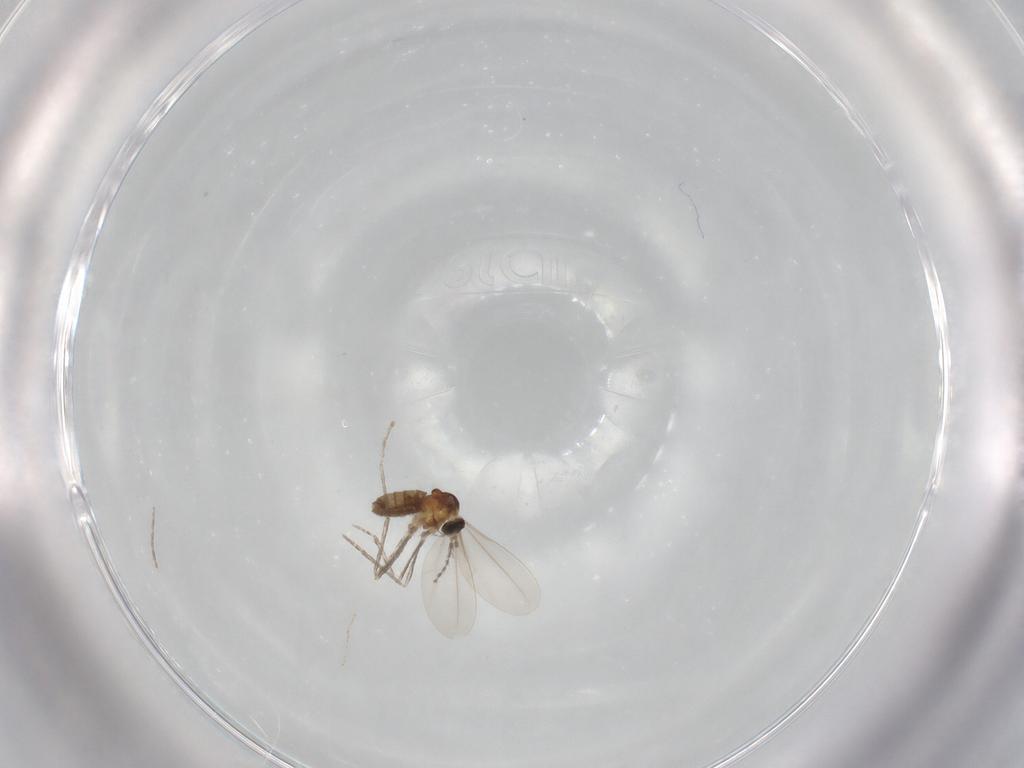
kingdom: Animalia
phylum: Arthropoda
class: Insecta
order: Diptera
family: Cecidomyiidae
